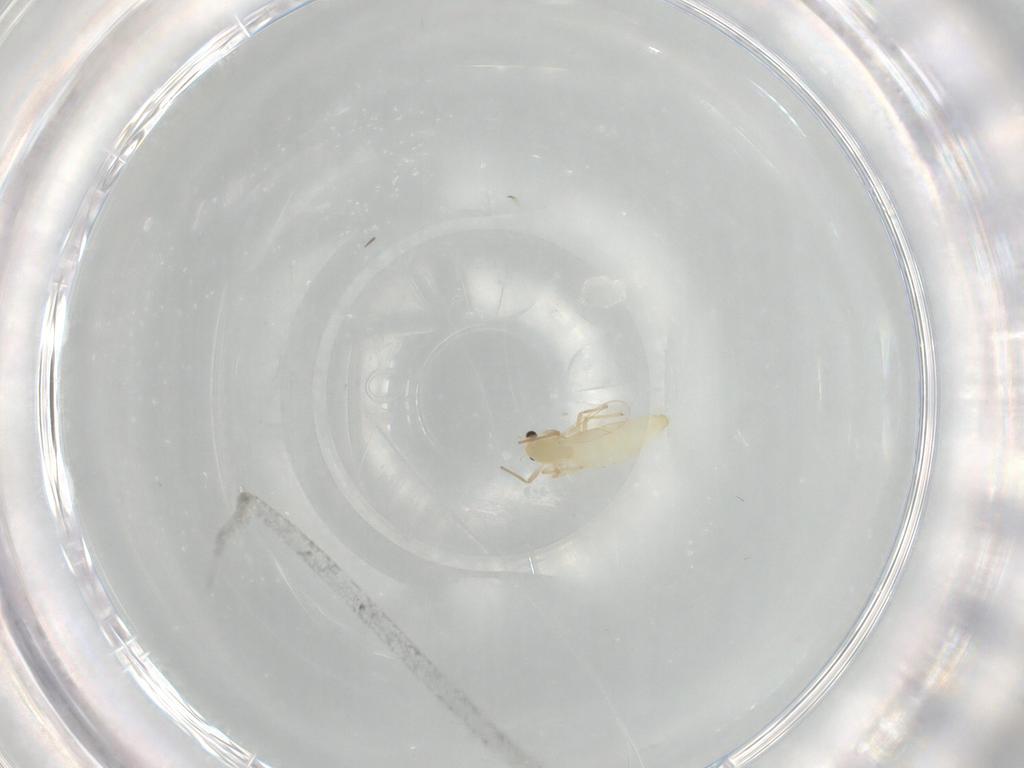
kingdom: Animalia
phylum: Arthropoda
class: Insecta
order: Diptera
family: Chironomidae
